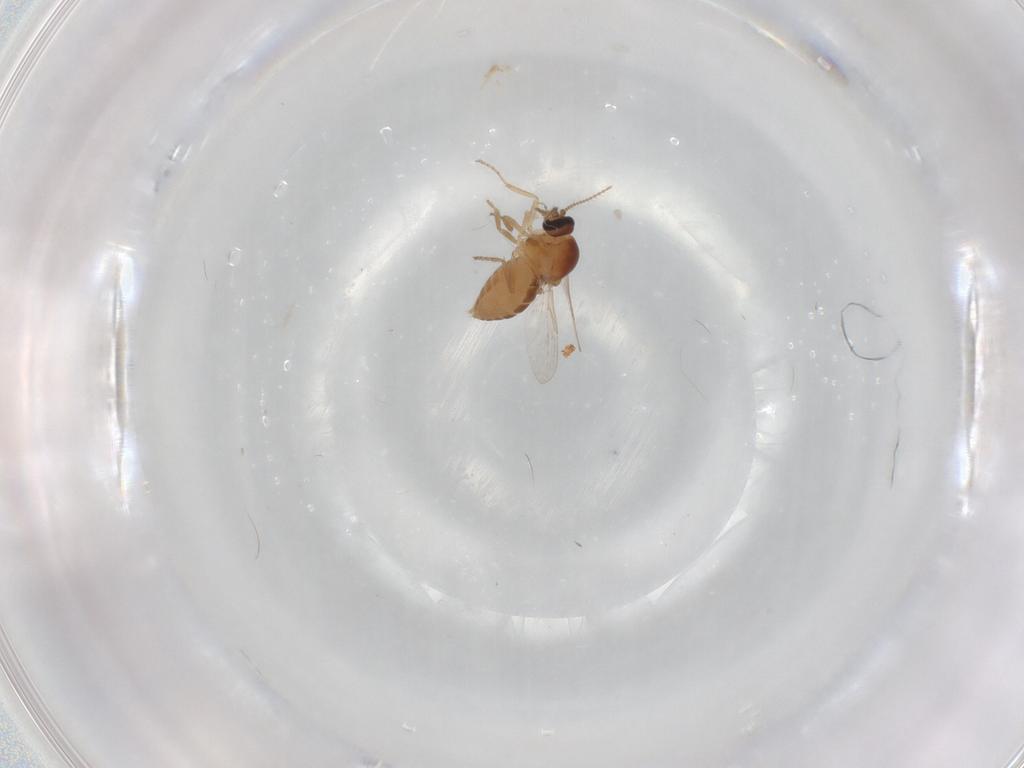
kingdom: Animalia
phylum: Arthropoda
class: Insecta
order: Diptera
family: Ceratopogonidae
